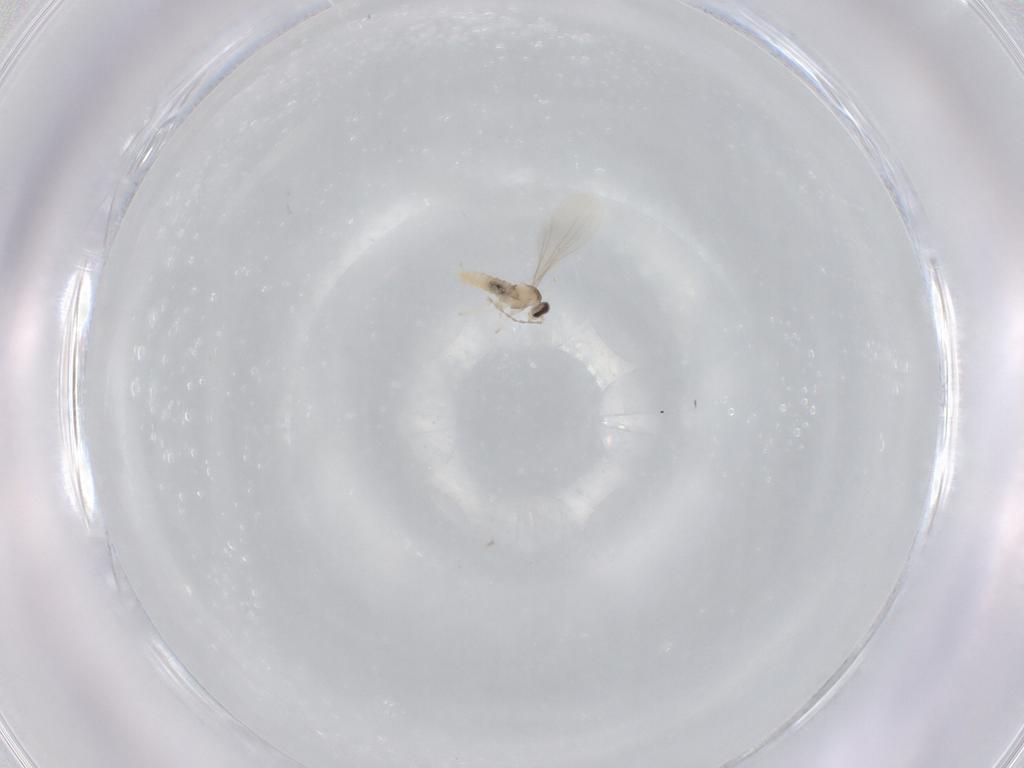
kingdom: Animalia
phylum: Arthropoda
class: Insecta
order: Diptera
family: Cecidomyiidae
